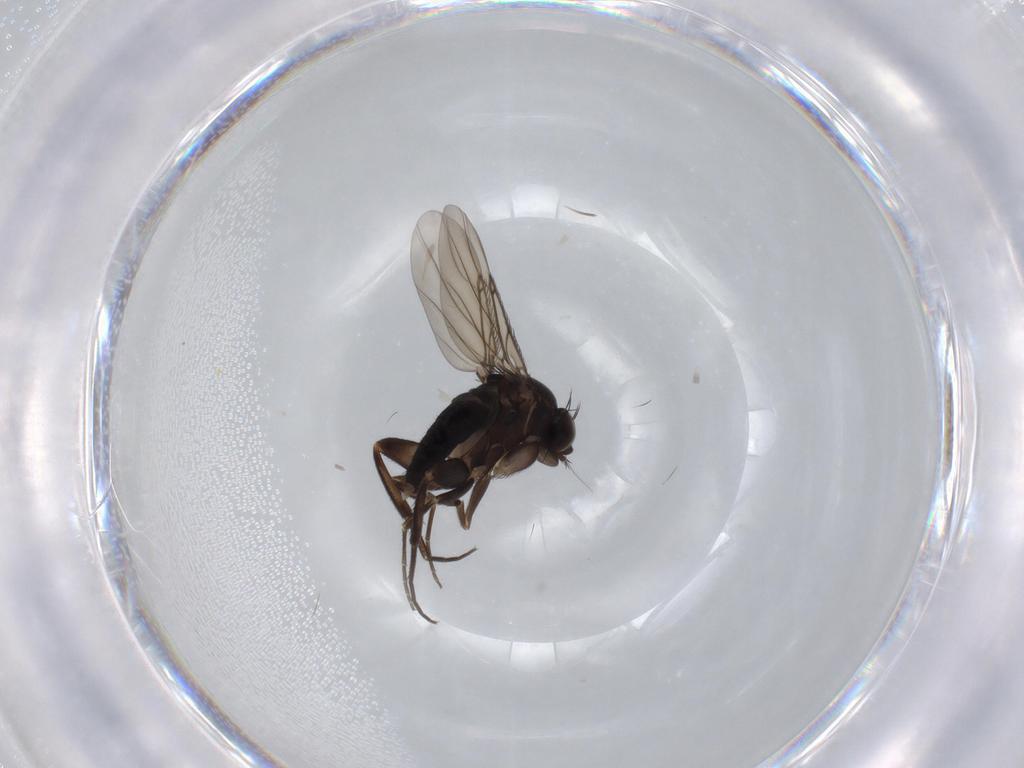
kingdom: Animalia
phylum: Arthropoda
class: Insecta
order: Diptera
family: Phoridae
